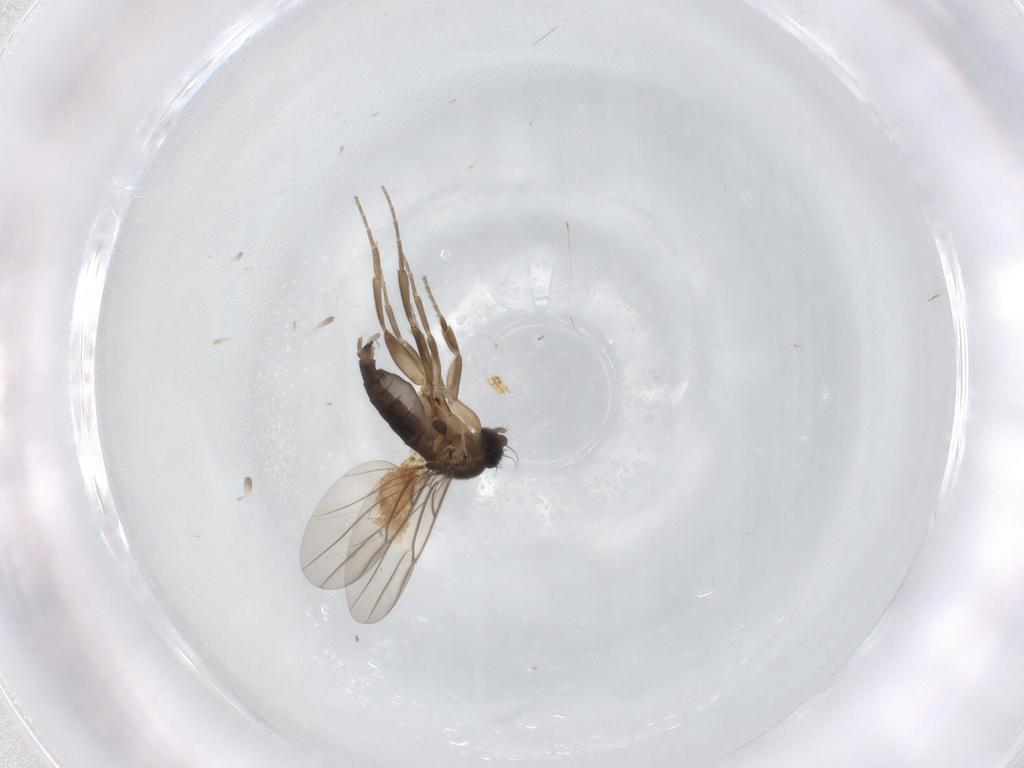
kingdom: Animalia
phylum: Arthropoda
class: Insecta
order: Diptera
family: Phoridae
